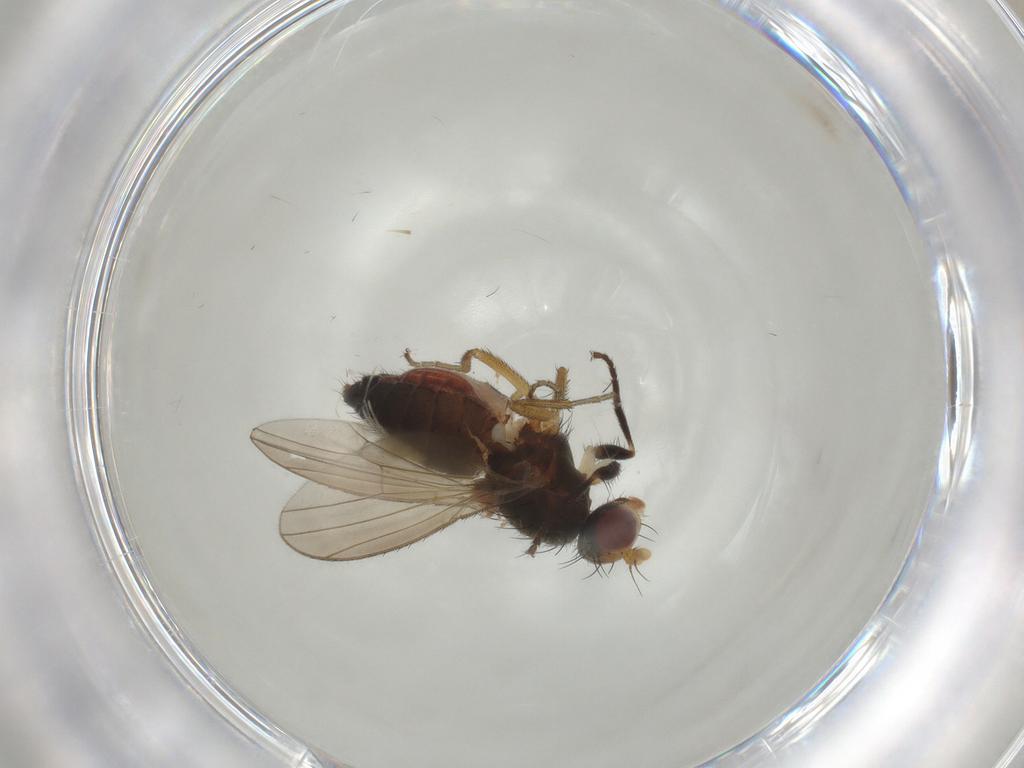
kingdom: Animalia
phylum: Arthropoda
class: Insecta
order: Diptera
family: Heleomyzidae
